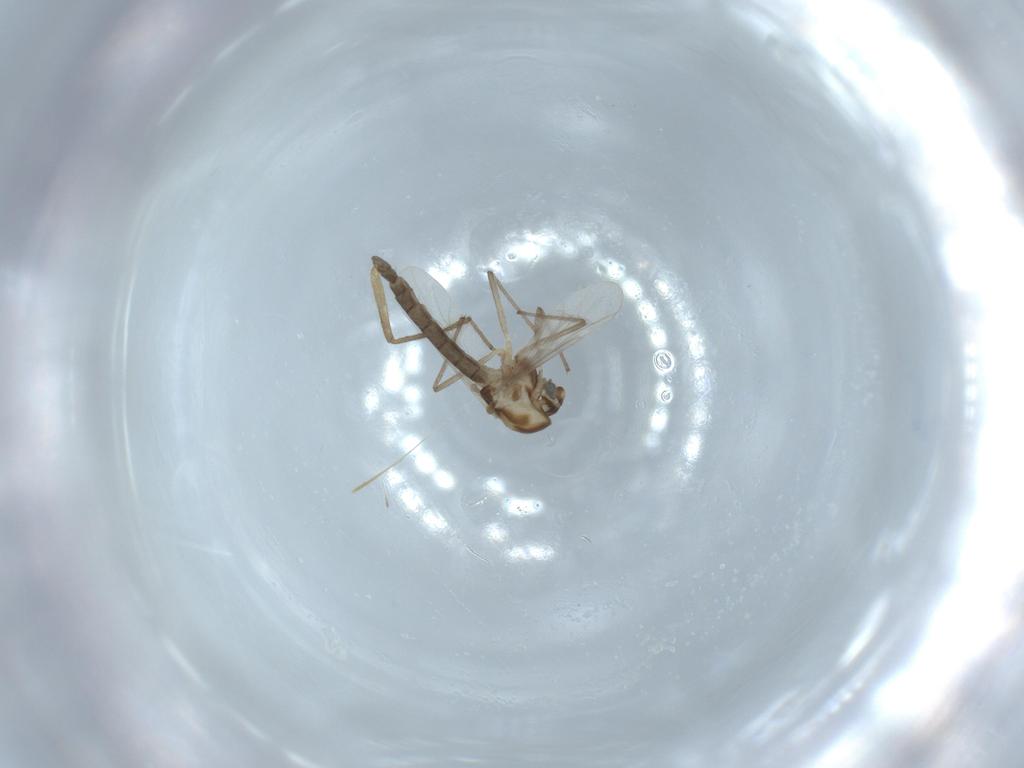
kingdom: Animalia
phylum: Arthropoda
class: Insecta
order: Diptera
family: Chironomidae
